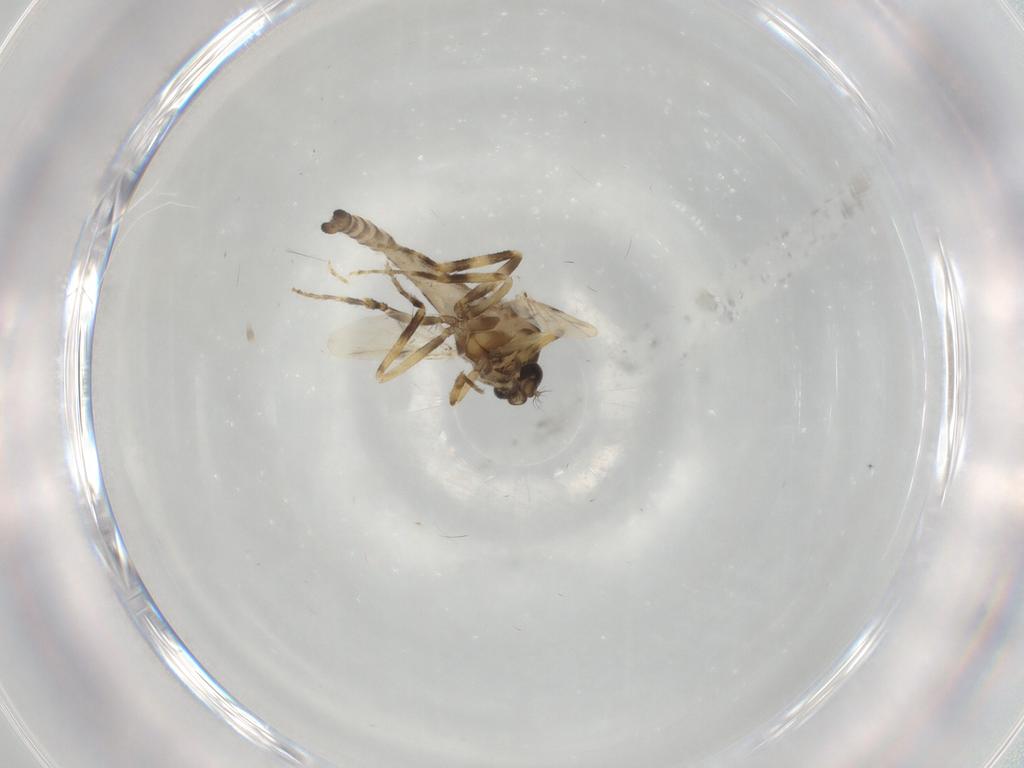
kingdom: Animalia
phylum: Arthropoda
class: Insecta
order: Diptera
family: Ceratopogonidae
